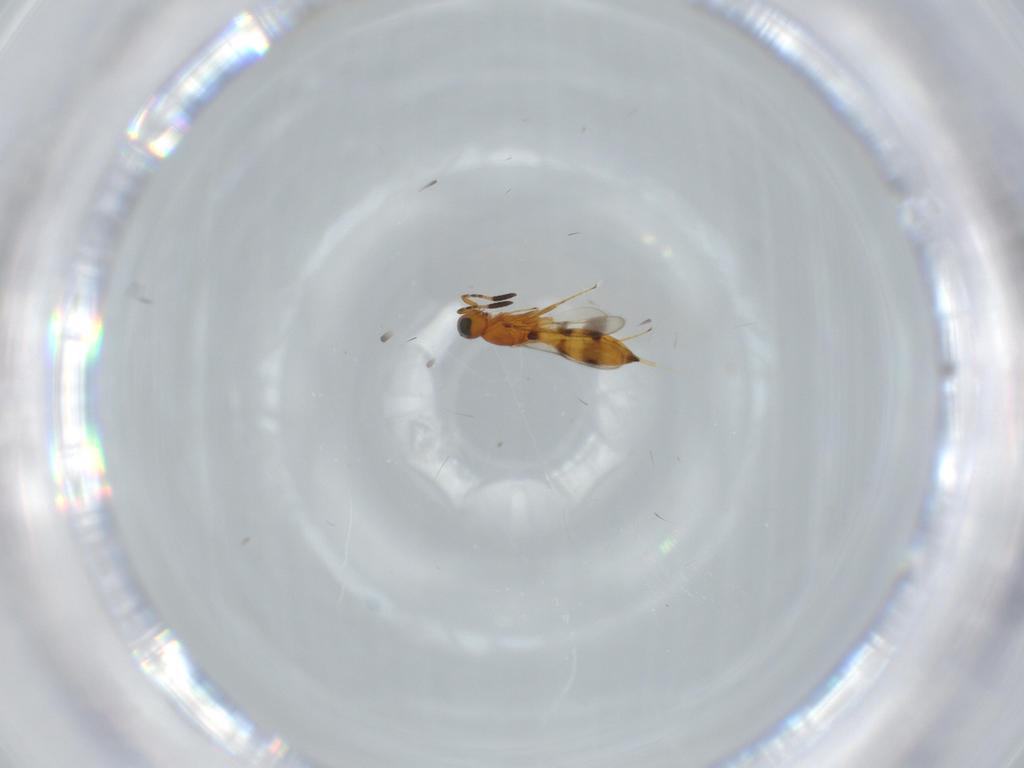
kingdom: Animalia
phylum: Arthropoda
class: Insecta
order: Hymenoptera
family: Scelionidae
